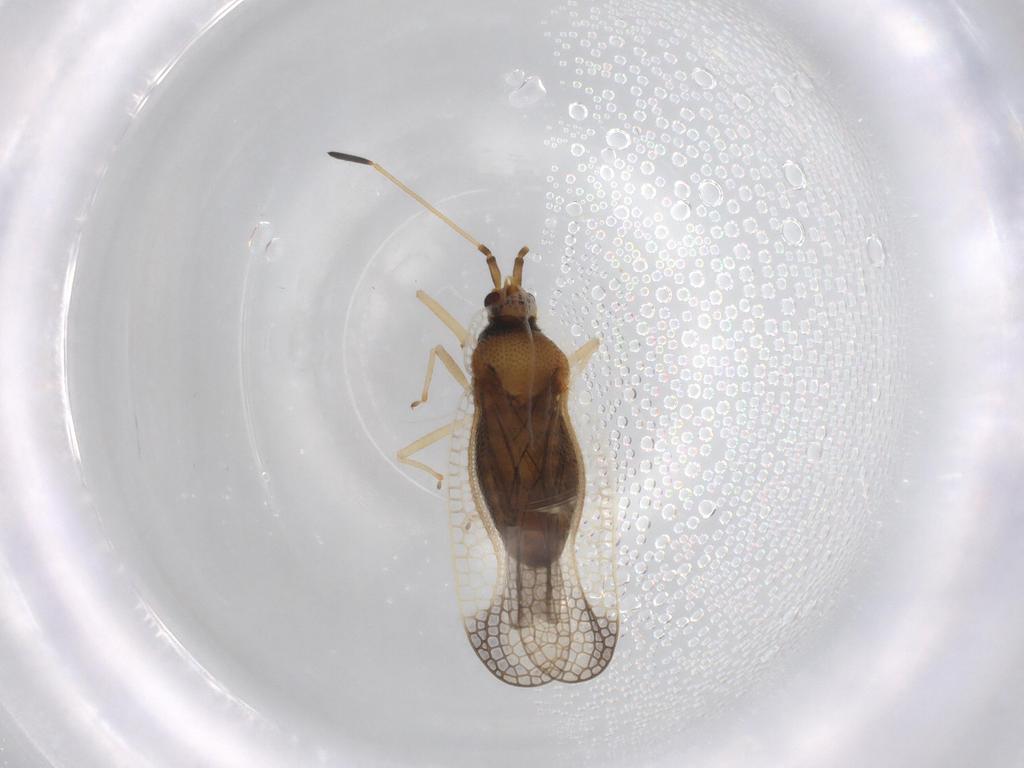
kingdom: Animalia
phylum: Arthropoda
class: Insecta
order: Hemiptera
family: Tingidae
